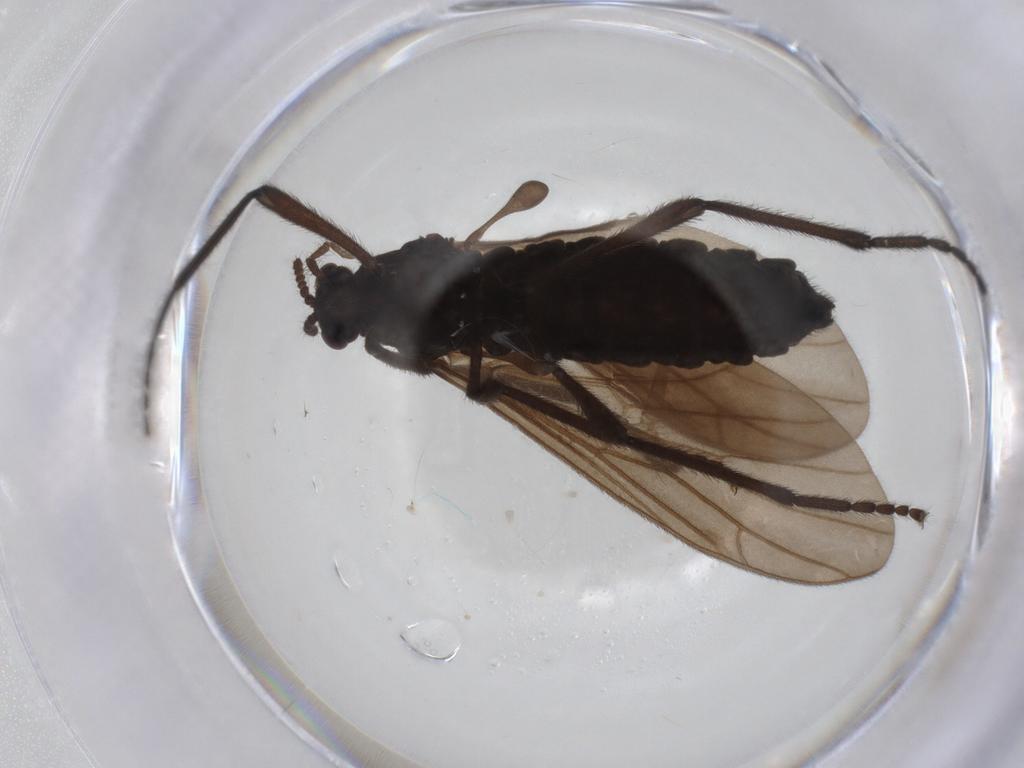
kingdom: Animalia
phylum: Arthropoda
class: Insecta
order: Diptera
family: Bibionidae
